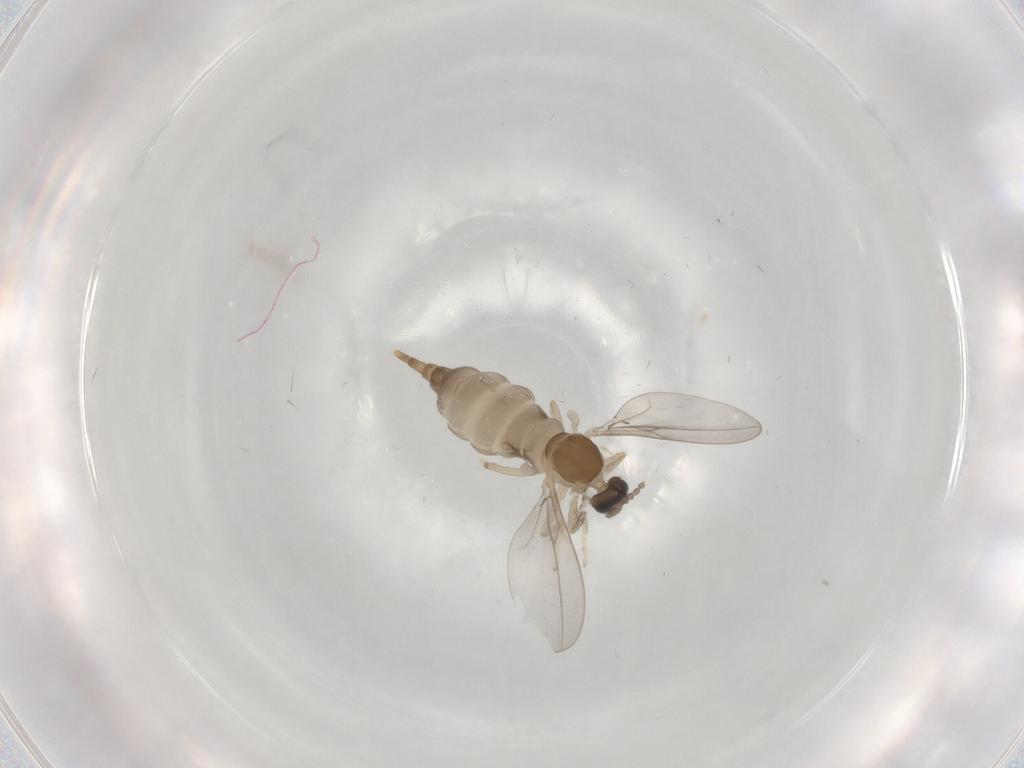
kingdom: Animalia
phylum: Arthropoda
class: Insecta
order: Diptera
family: Cecidomyiidae
